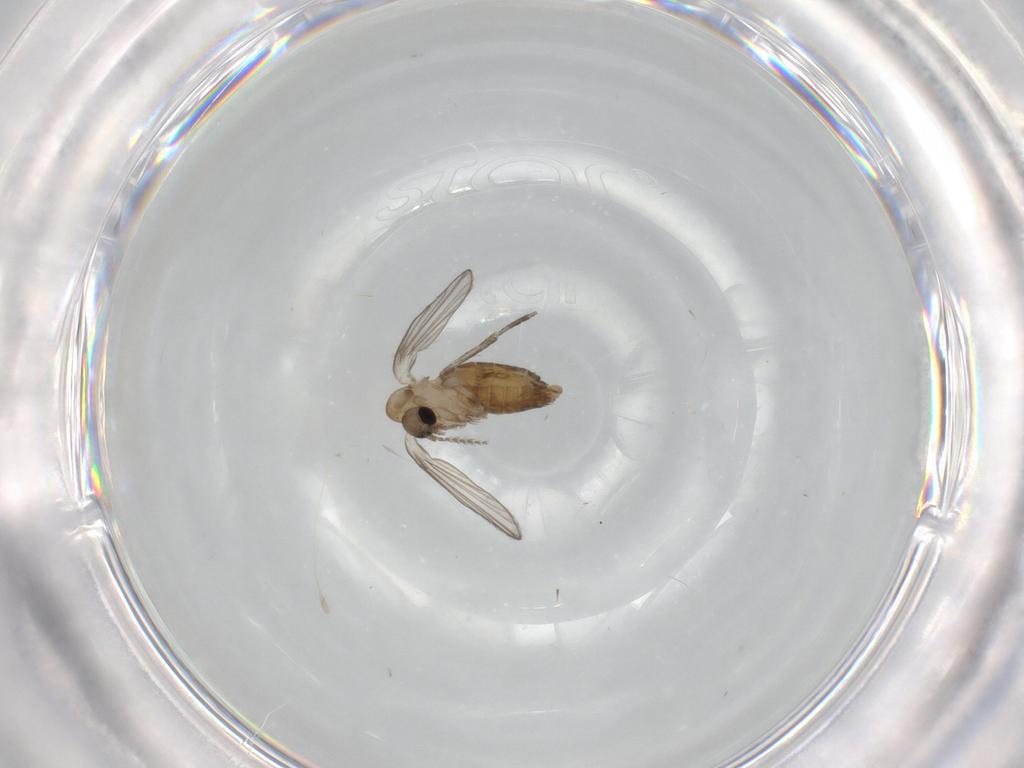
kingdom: Animalia
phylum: Arthropoda
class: Insecta
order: Diptera
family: Psychodidae
